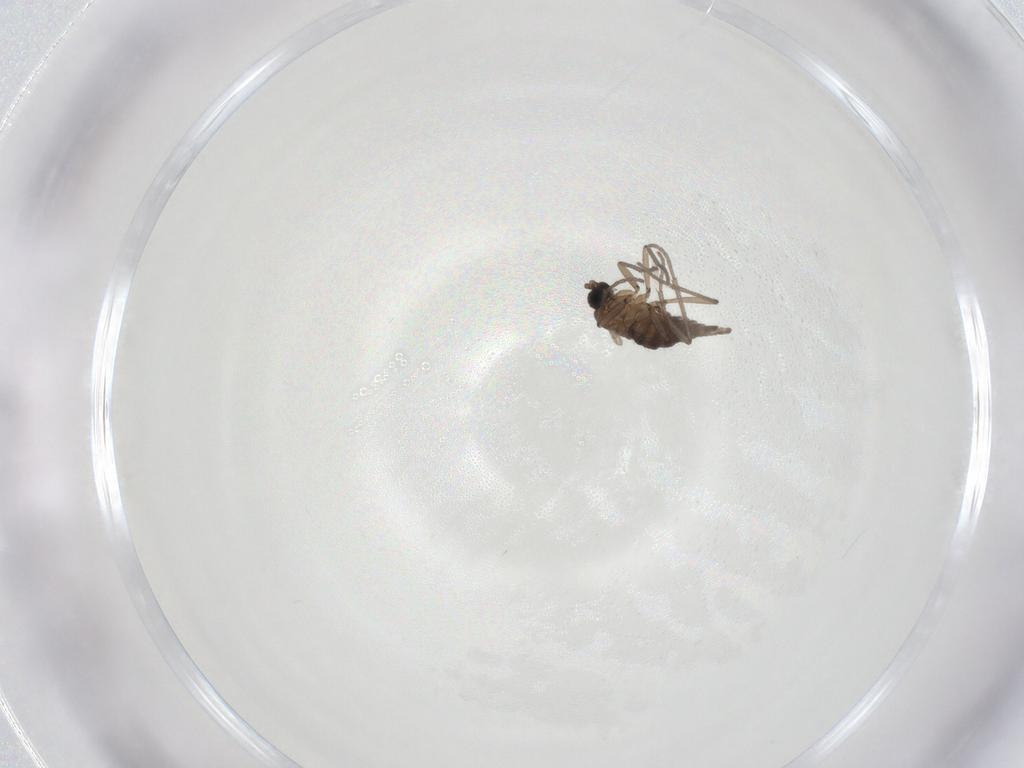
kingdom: Animalia
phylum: Arthropoda
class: Insecta
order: Diptera
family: Sciaridae
